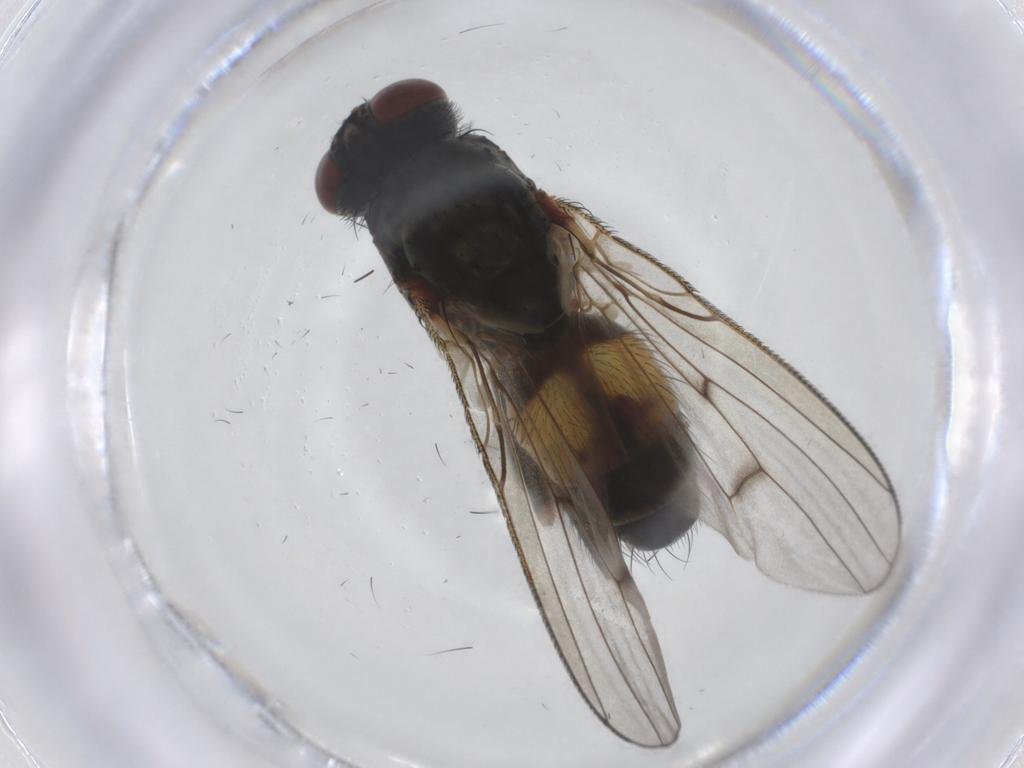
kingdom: Animalia
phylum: Arthropoda
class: Insecta
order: Diptera
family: Muscidae
